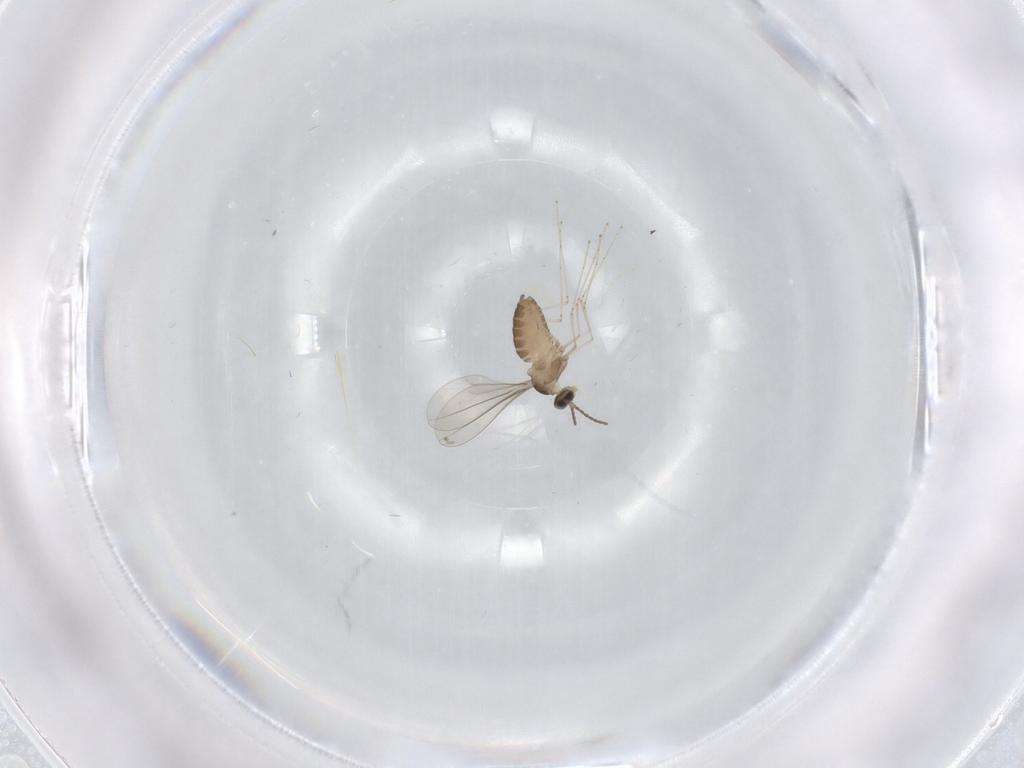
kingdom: Animalia
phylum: Arthropoda
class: Insecta
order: Diptera
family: Cecidomyiidae
